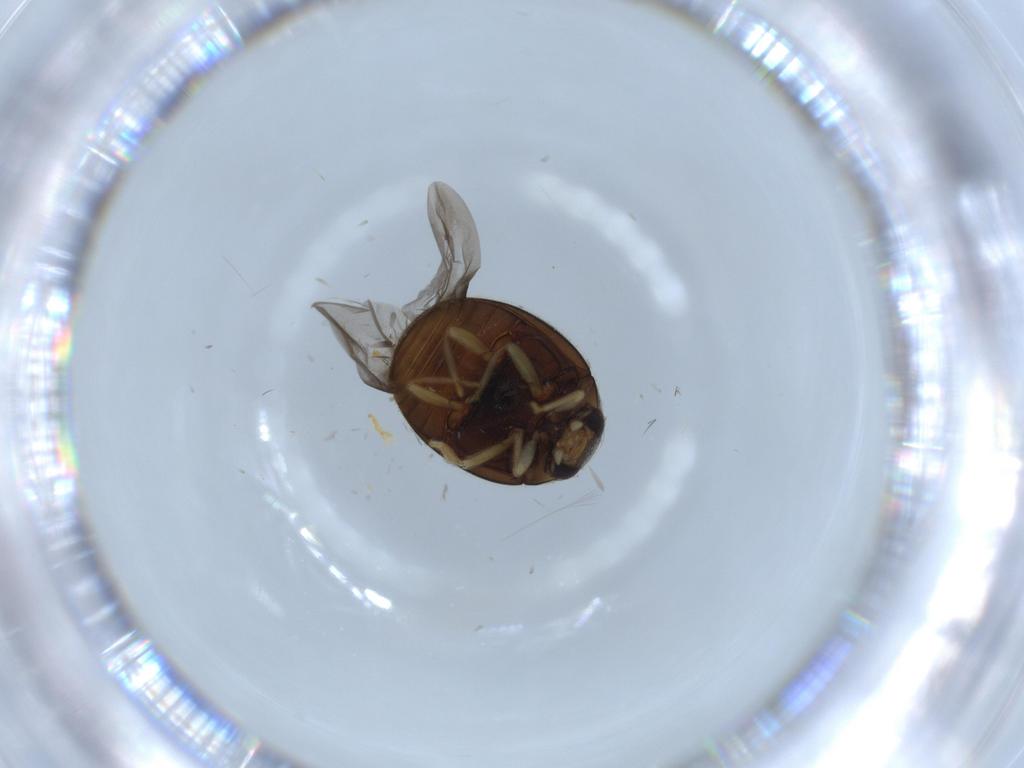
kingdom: Animalia
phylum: Arthropoda
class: Insecta
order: Coleoptera
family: Coccinellidae
